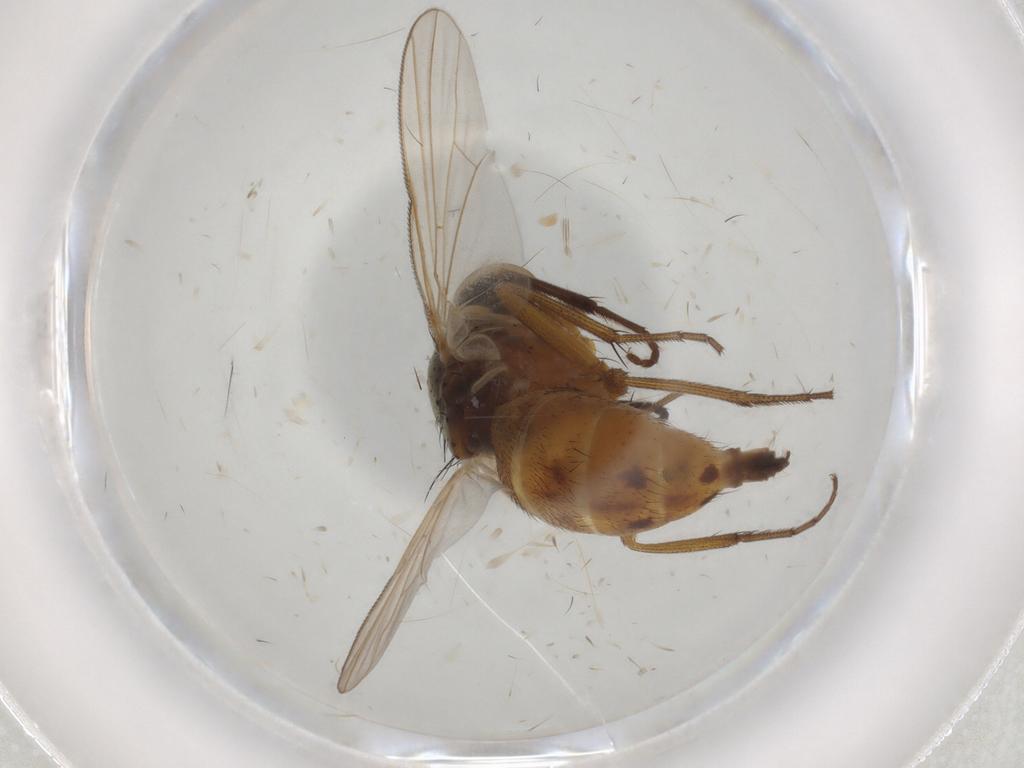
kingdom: Animalia
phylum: Arthropoda
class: Insecta
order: Diptera
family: Muscidae
